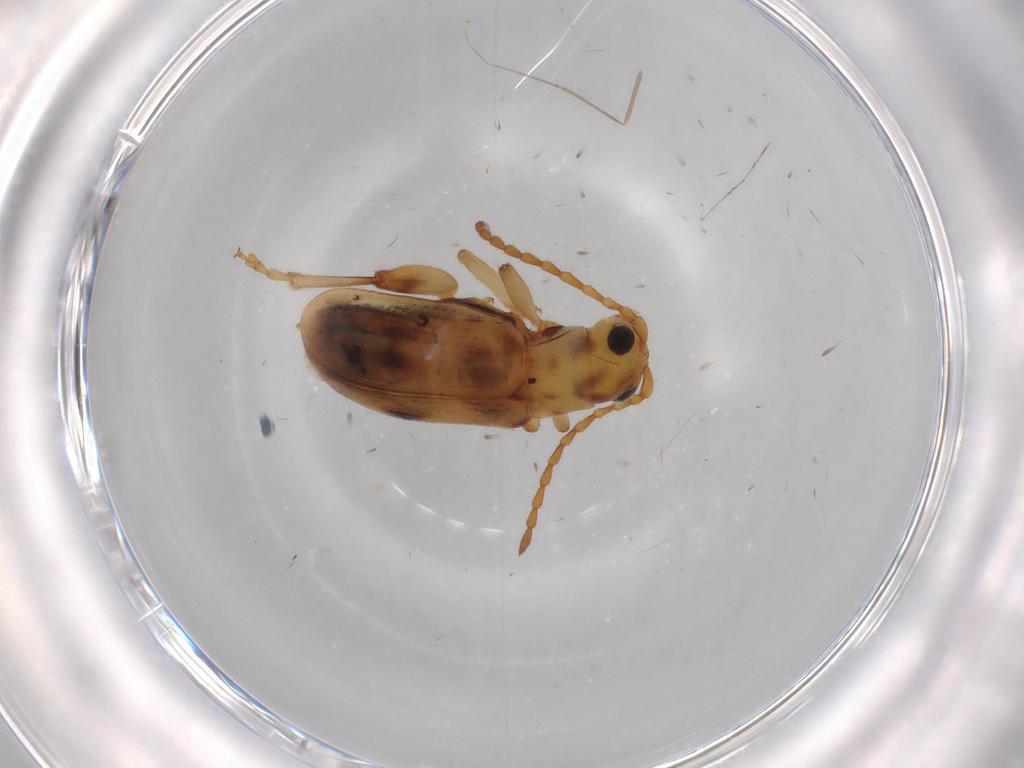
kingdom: Animalia
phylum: Arthropoda
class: Insecta
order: Coleoptera
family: Chrysomelidae
